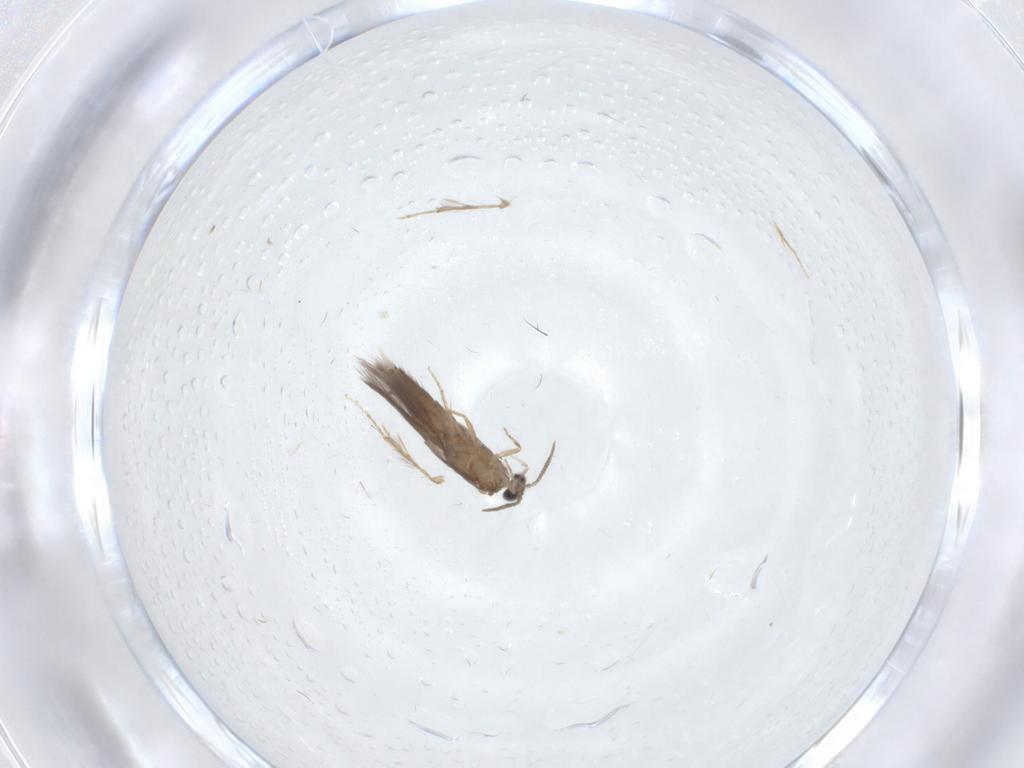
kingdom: Animalia
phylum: Arthropoda
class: Insecta
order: Trichoptera
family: Hydroptilidae
